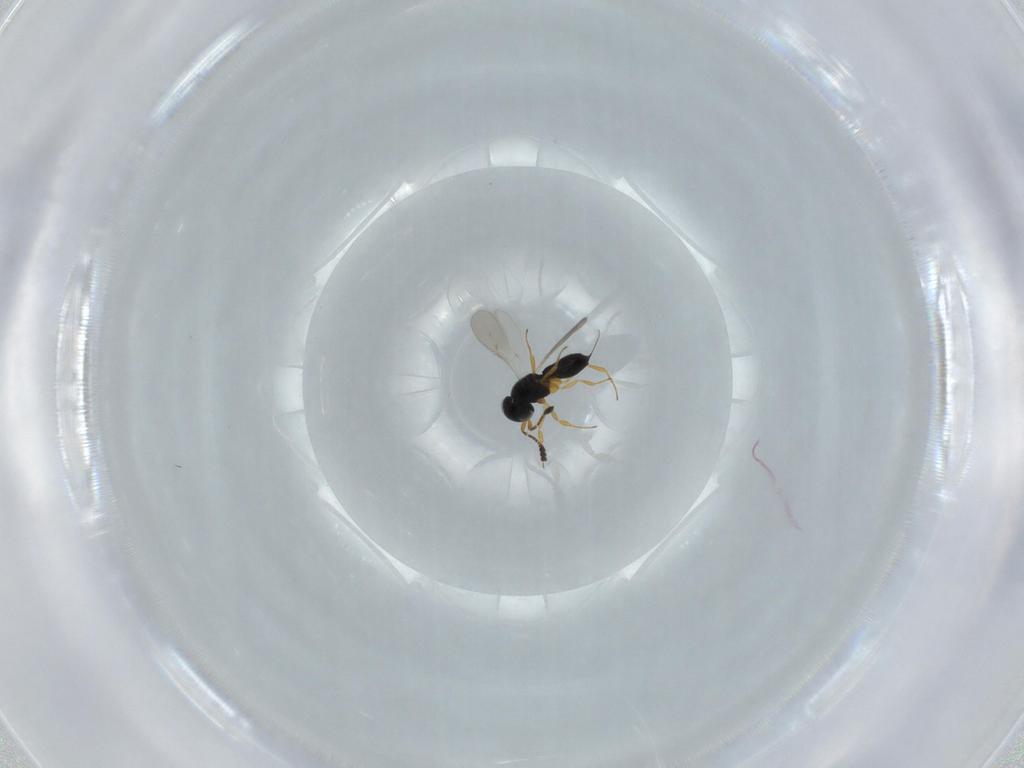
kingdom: Animalia
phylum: Arthropoda
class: Insecta
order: Hymenoptera
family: Scelionidae
